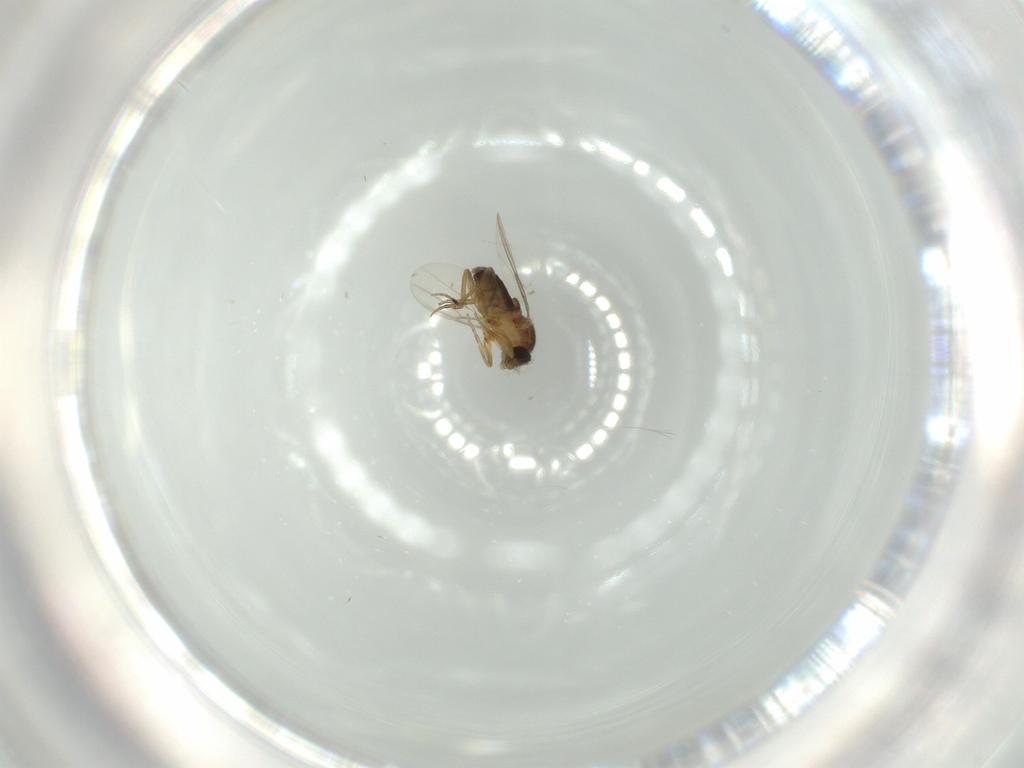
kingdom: Animalia
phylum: Arthropoda
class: Insecta
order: Diptera
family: Phoridae
